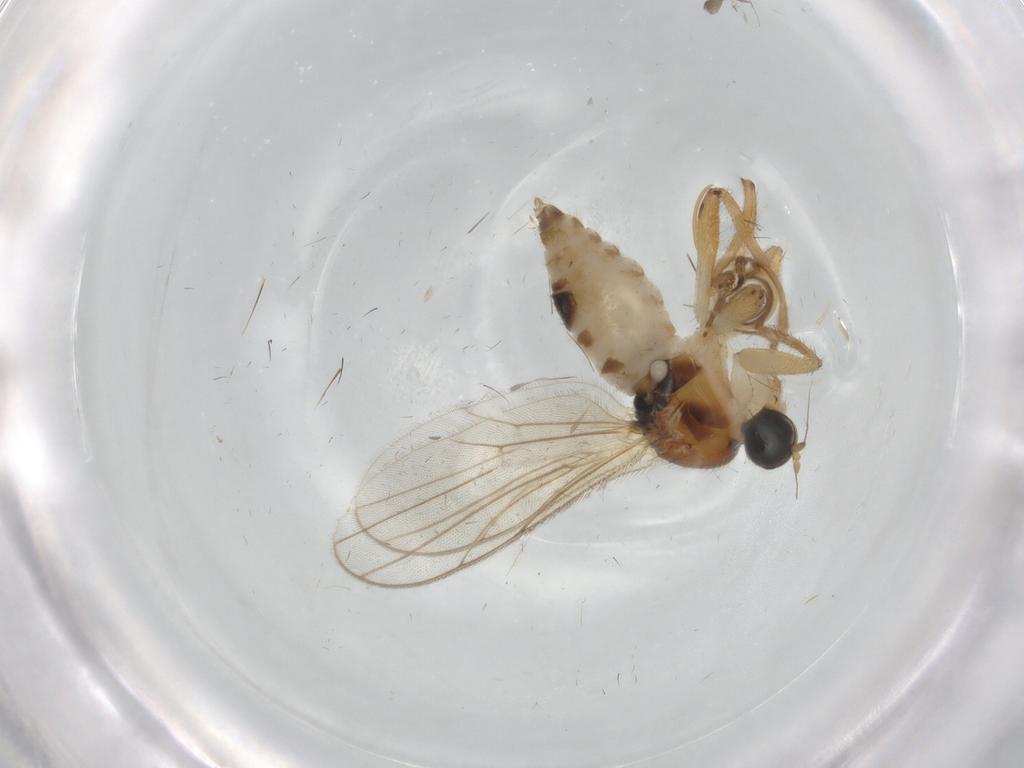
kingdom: Animalia
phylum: Arthropoda
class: Insecta
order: Diptera
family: Hybotidae
